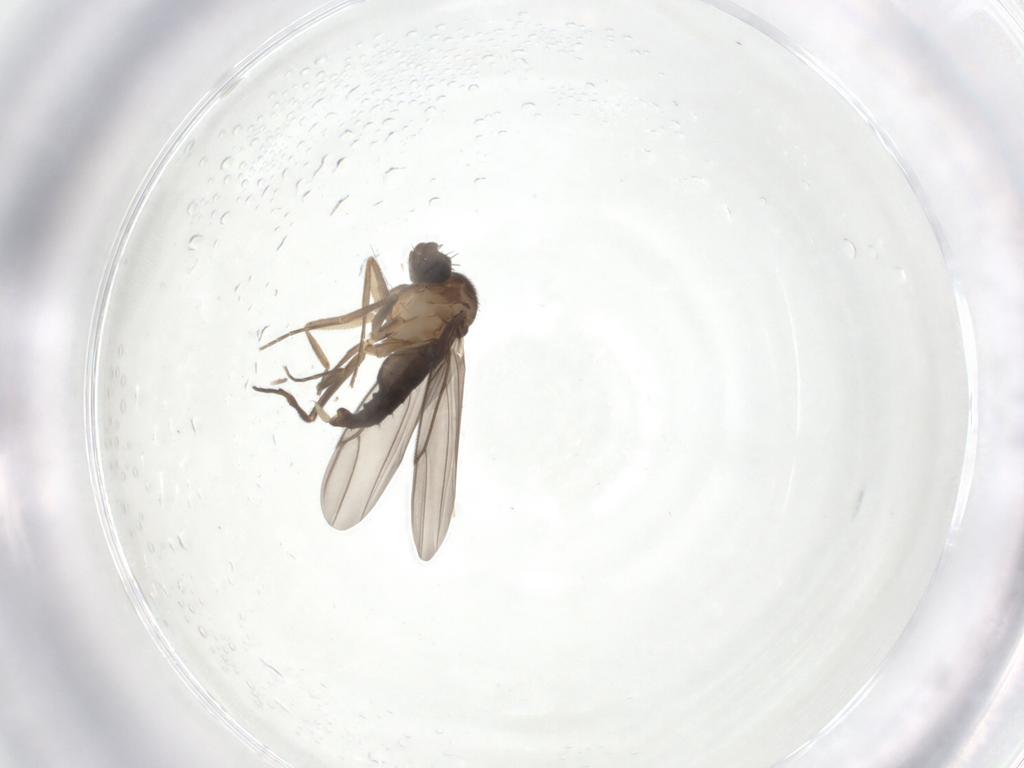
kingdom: Animalia
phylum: Arthropoda
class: Insecta
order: Diptera
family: Phoridae
